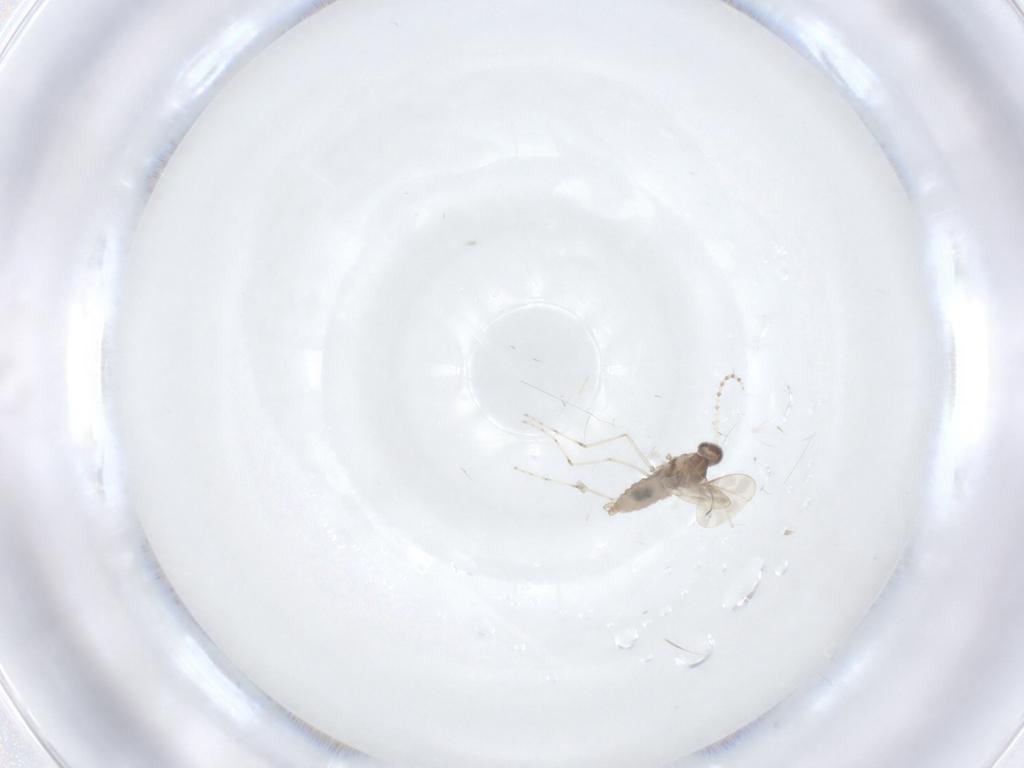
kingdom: Animalia
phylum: Arthropoda
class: Insecta
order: Diptera
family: Cecidomyiidae
